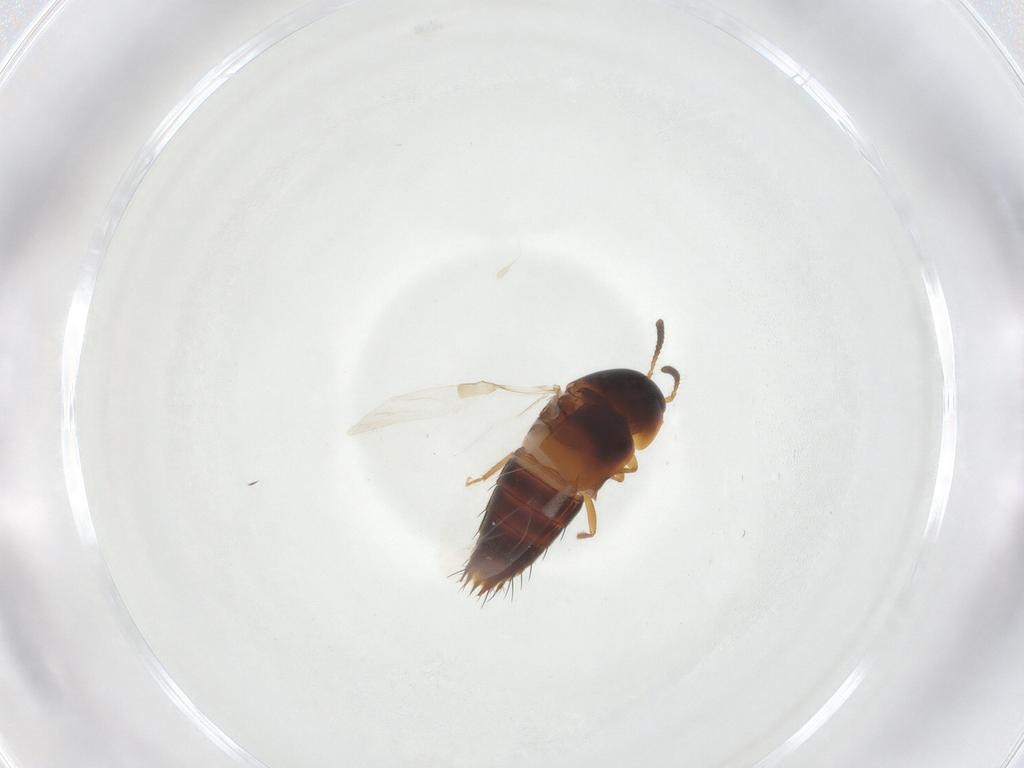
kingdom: Animalia
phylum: Arthropoda
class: Insecta
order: Coleoptera
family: Staphylinidae
